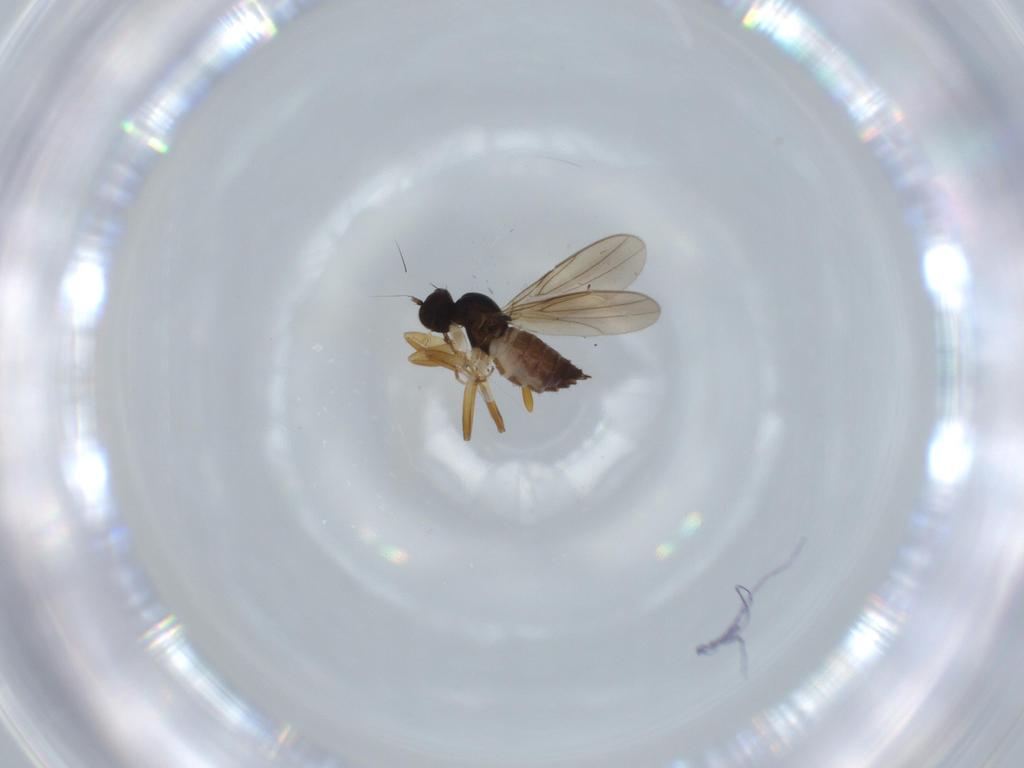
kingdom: Animalia
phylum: Arthropoda
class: Insecta
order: Diptera
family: Hybotidae
